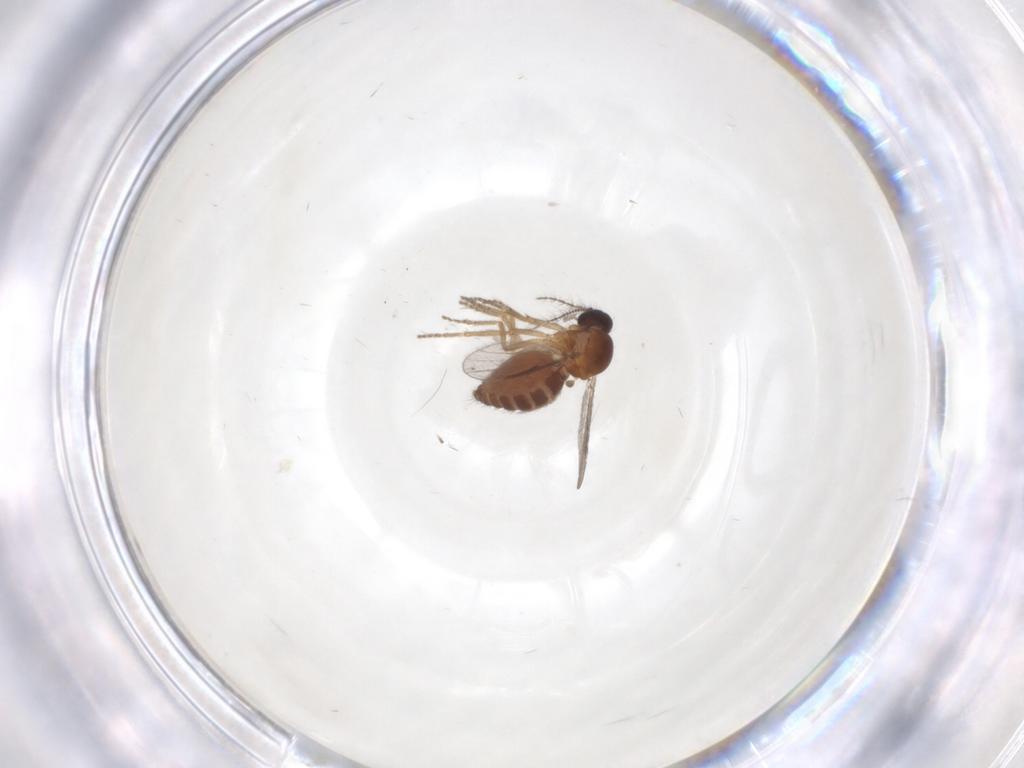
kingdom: Animalia
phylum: Arthropoda
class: Insecta
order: Diptera
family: Ceratopogonidae
